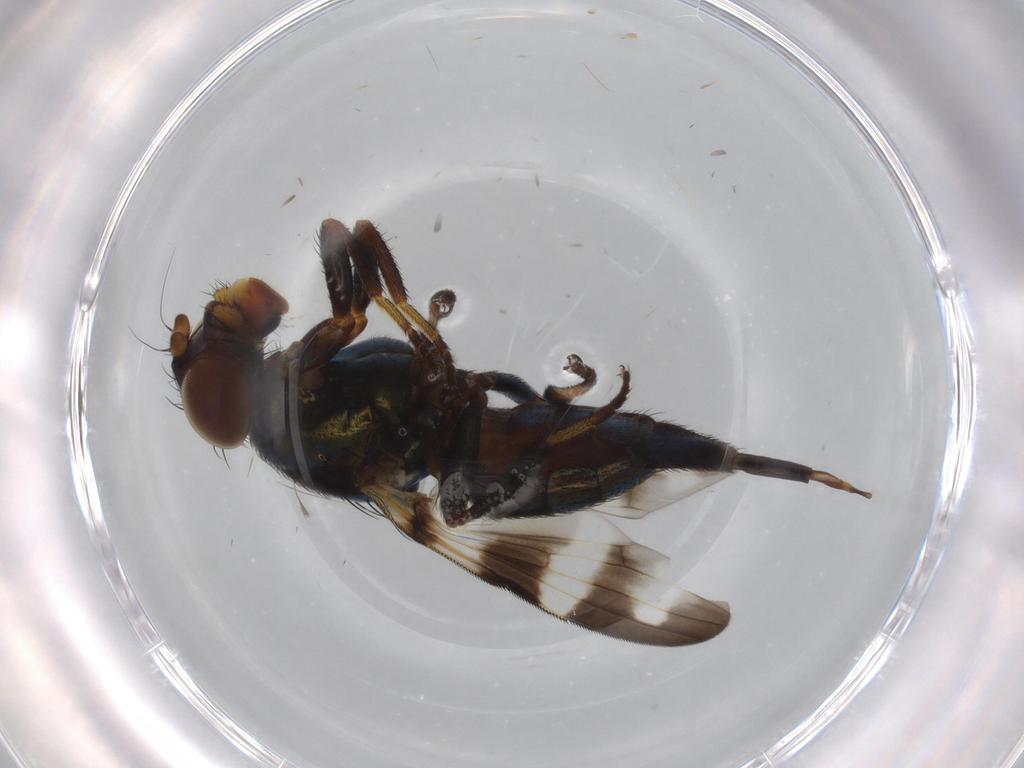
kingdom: Animalia
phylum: Arthropoda
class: Insecta
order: Diptera
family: Ulidiidae
